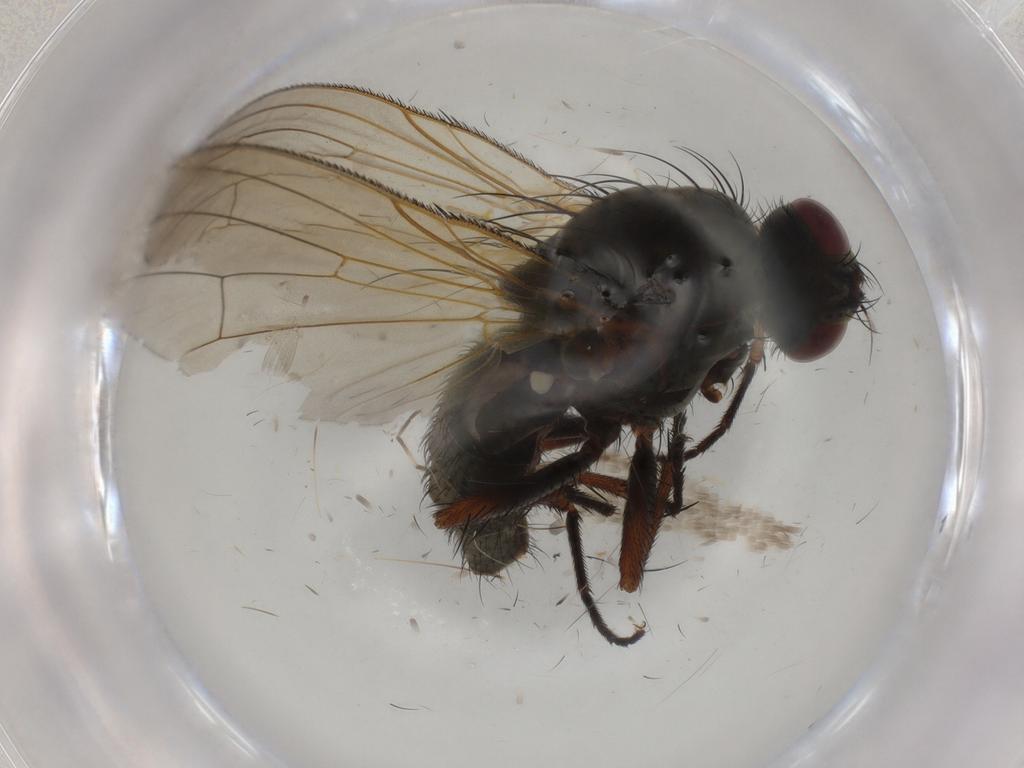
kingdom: Animalia
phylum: Arthropoda
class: Insecta
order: Diptera
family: Anthomyiidae
